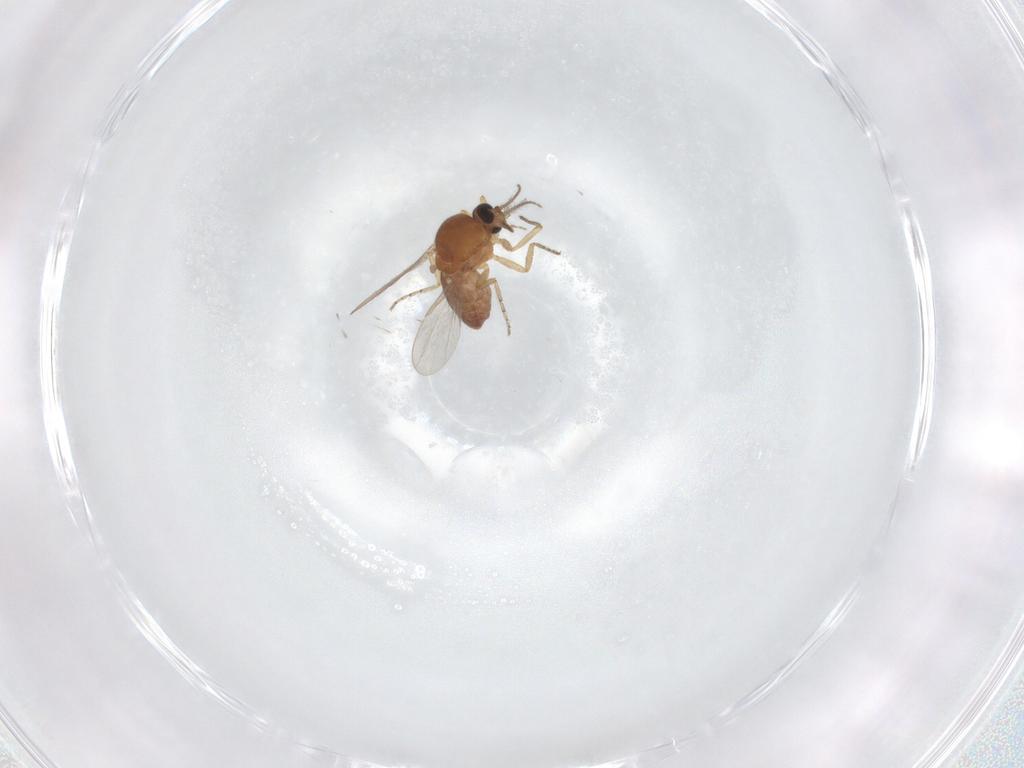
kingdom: Animalia
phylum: Arthropoda
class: Insecta
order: Diptera
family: Ceratopogonidae
